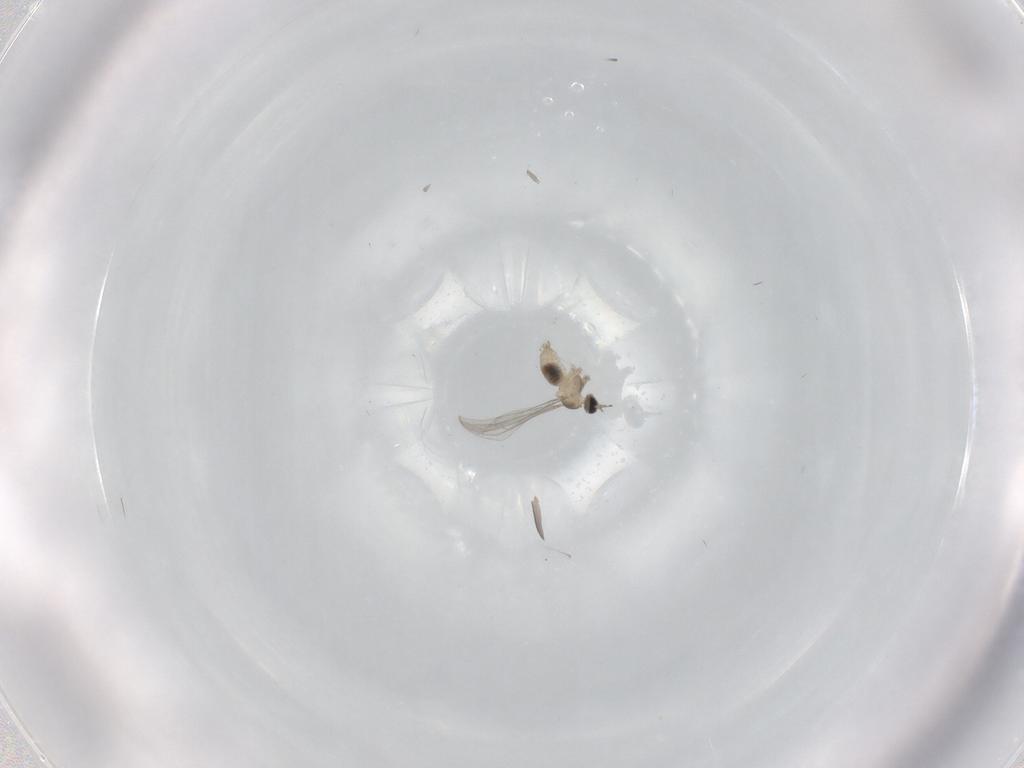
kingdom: Animalia
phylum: Arthropoda
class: Insecta
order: Diptera
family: Cecidomyiidae
